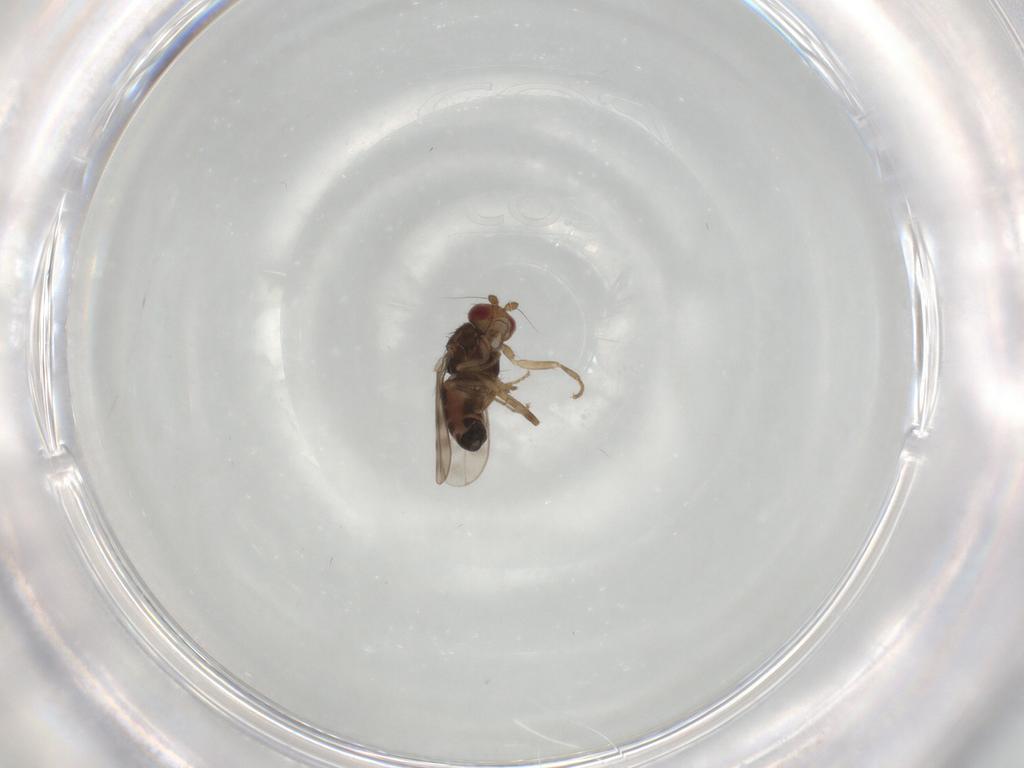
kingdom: Animalia
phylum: Arthropoda
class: Insecta
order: Diptera
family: Sphaeroceridae
